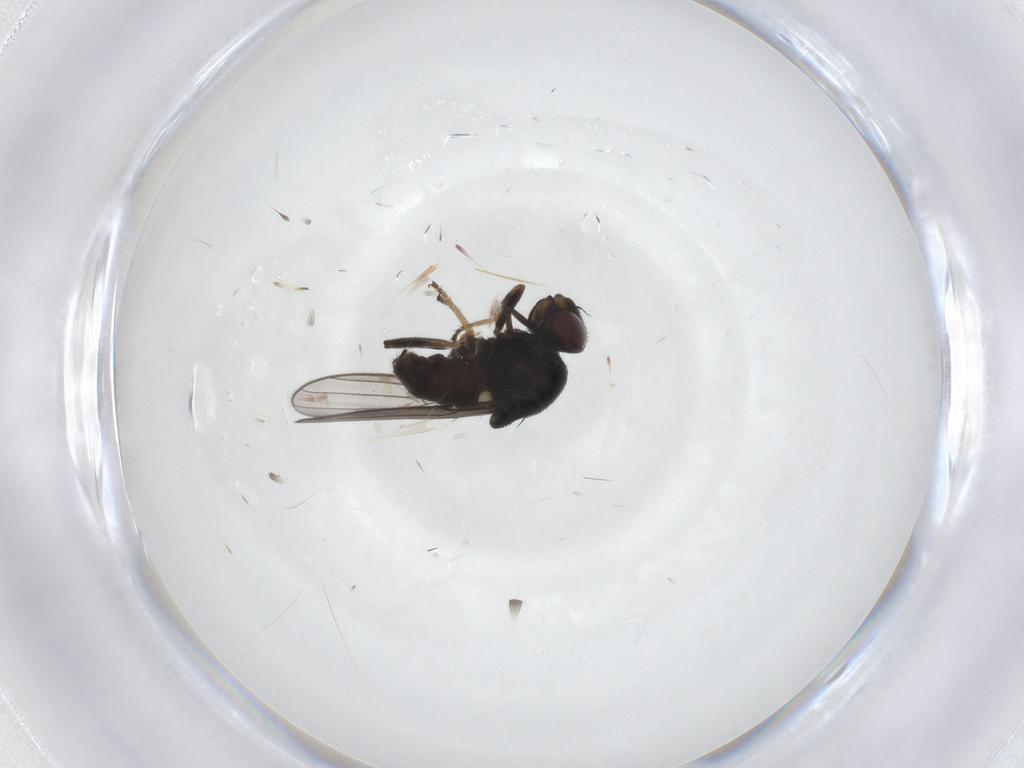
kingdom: Animalia
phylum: Arthropoda
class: Insecta
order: Diptera
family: Chloropidae
